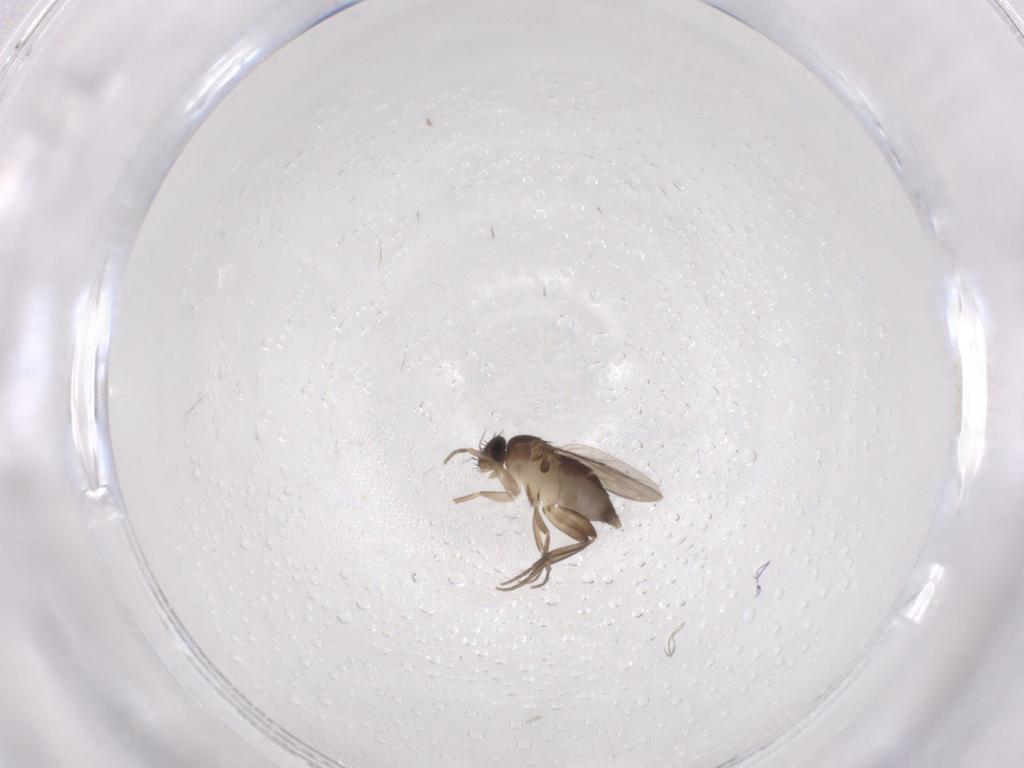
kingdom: Animalia
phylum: Arthropoda
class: Insecta
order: Diptera
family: Phoridae
